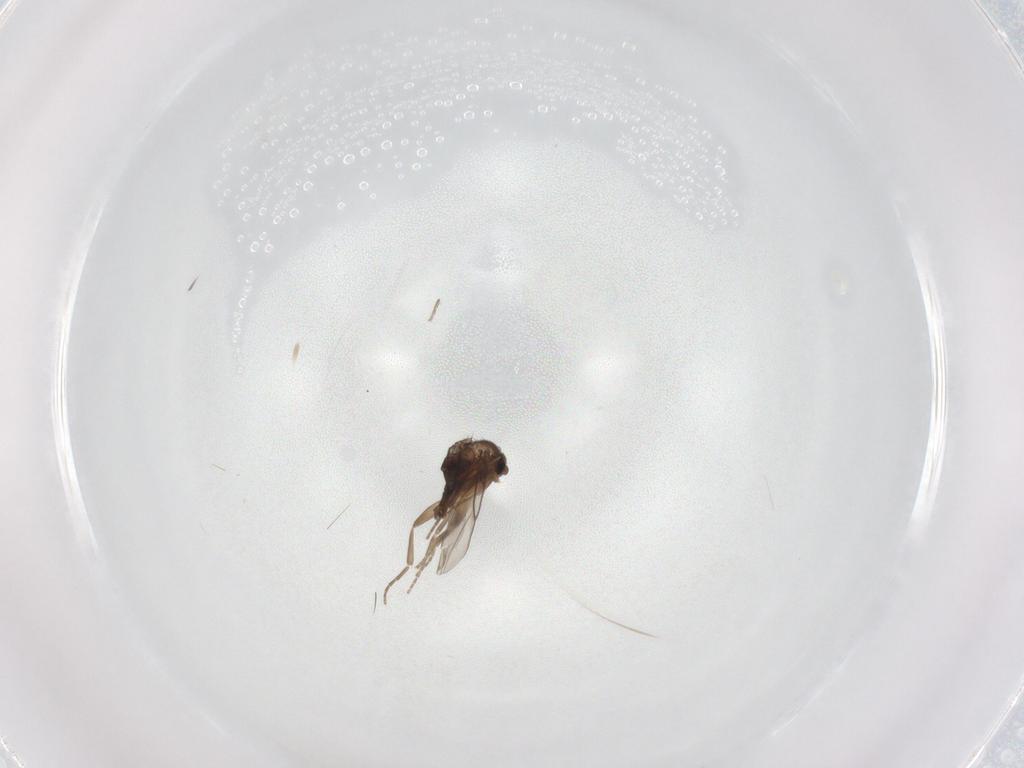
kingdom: Animalia
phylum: Arthropoda
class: Insecta
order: Diptera
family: Phoridae
